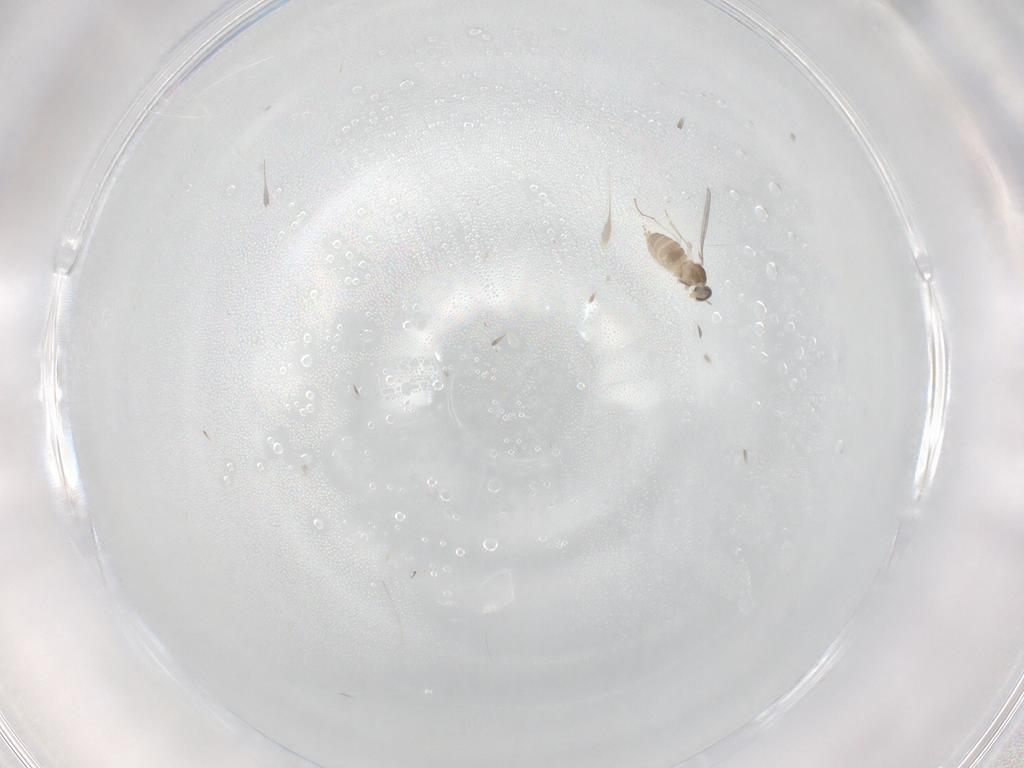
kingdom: Animalia
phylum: Arthropoda
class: Insecta
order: Diptera
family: Cecidomyiidae
